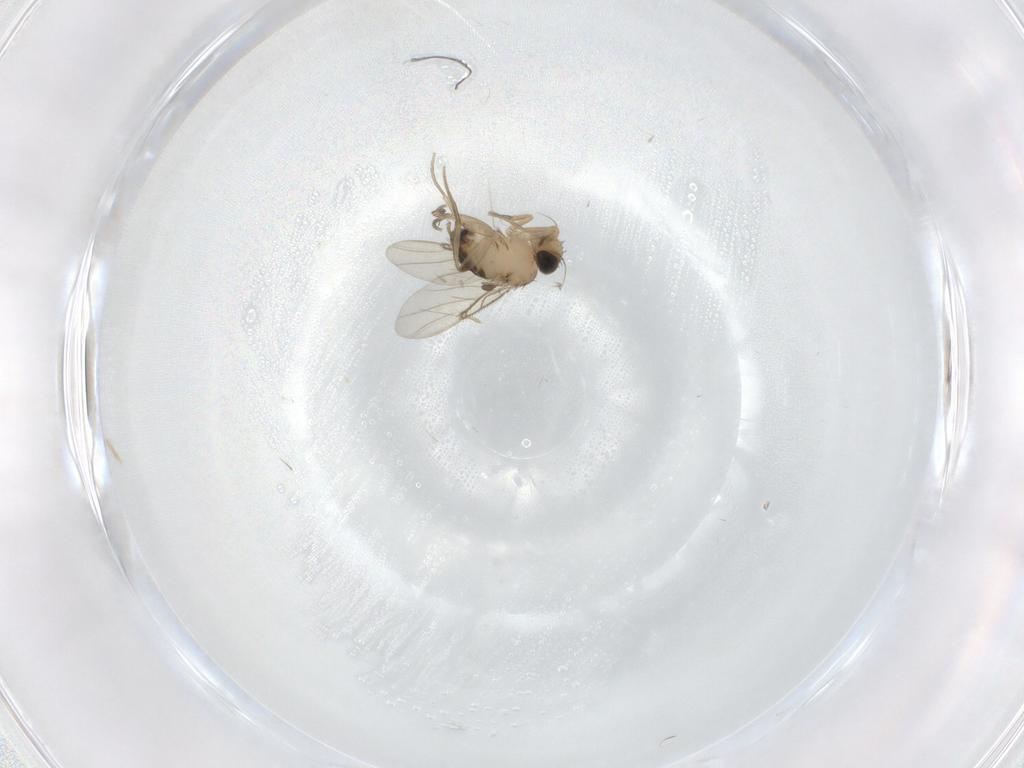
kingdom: Animalia
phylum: Arthropoda
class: Insecta
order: Diptera
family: Phoridae
